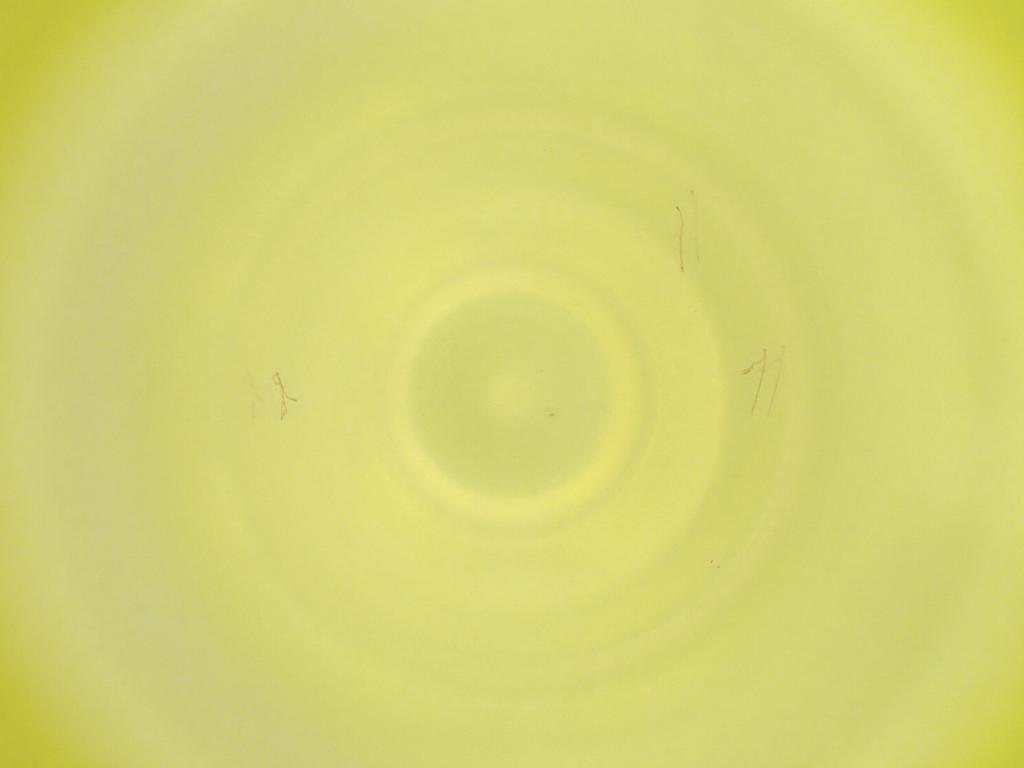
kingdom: Animalia
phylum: Arthropoda
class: Insecta
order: Diptera
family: Cecidomyiidae
